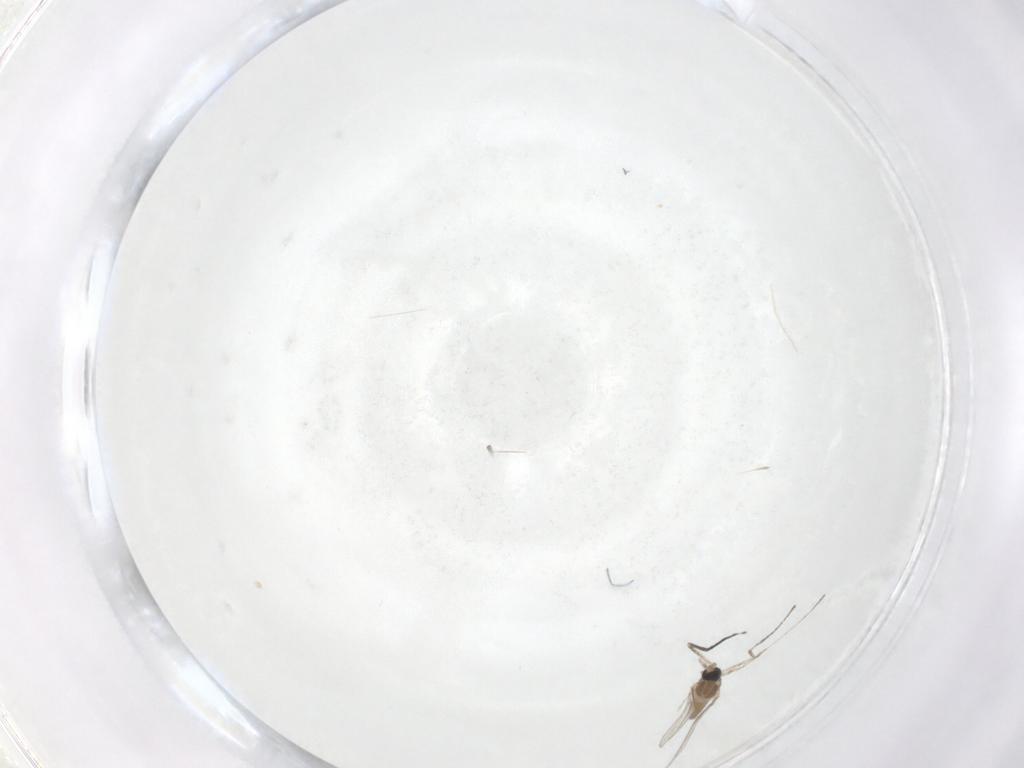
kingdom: Animalia
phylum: Arthropoda
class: Insecta
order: Diptera
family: Cecidomyiidae
